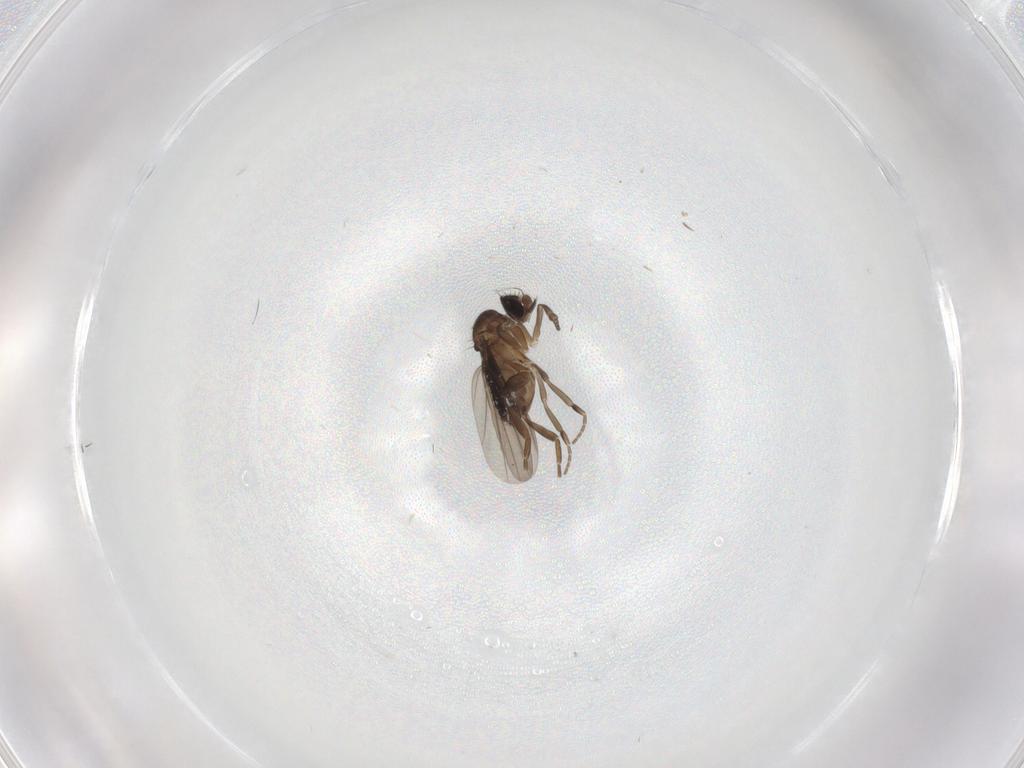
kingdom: Animalia
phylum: Arthropoda
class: Insecta
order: Diptera
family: Phoridae
